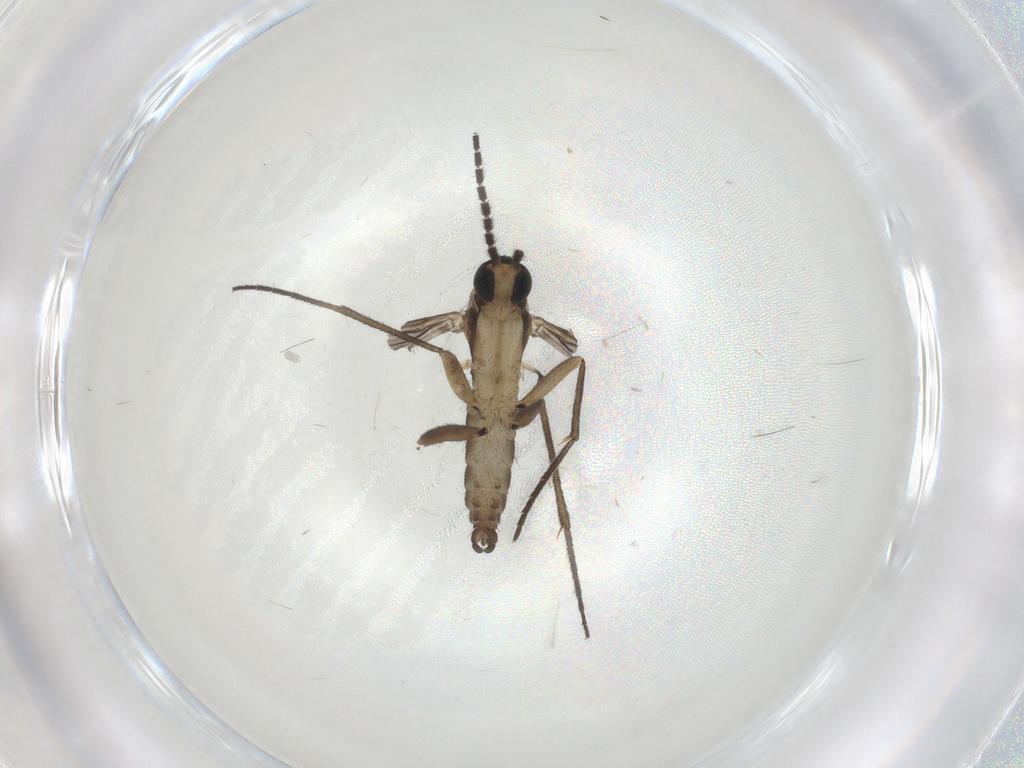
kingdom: Animalia
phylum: Arthropoda
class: Insecta
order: Diptera
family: Sciaridae
